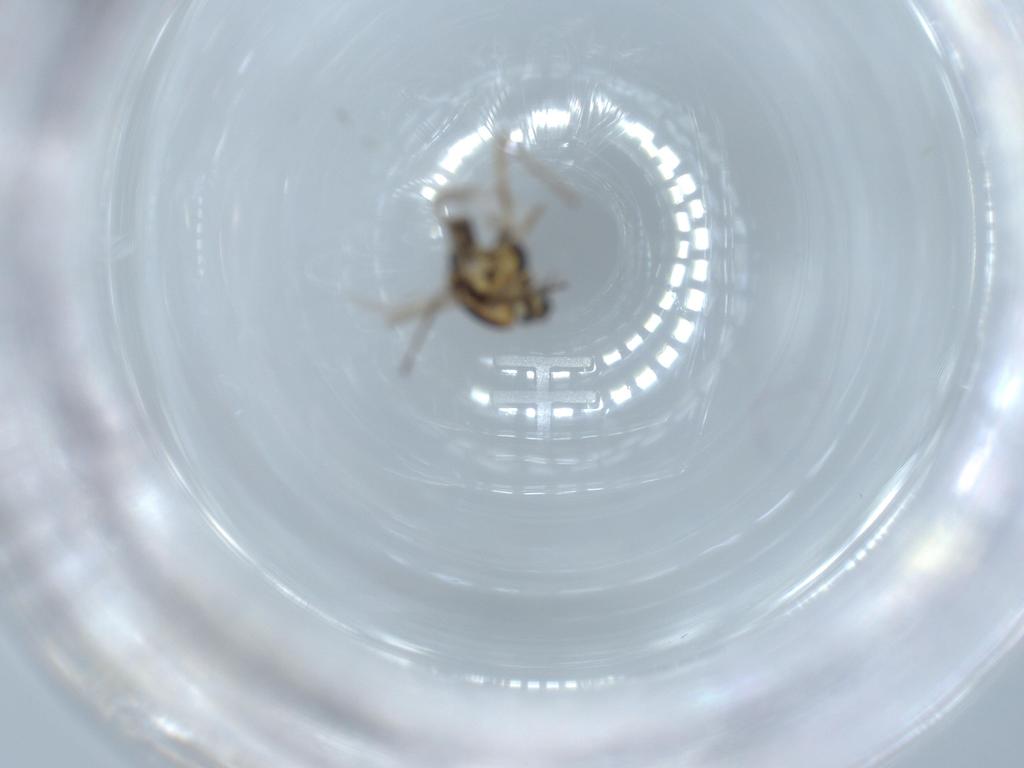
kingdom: Animalia
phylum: Arthropoda
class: Insecta
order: Diptera
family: Chironomidae
